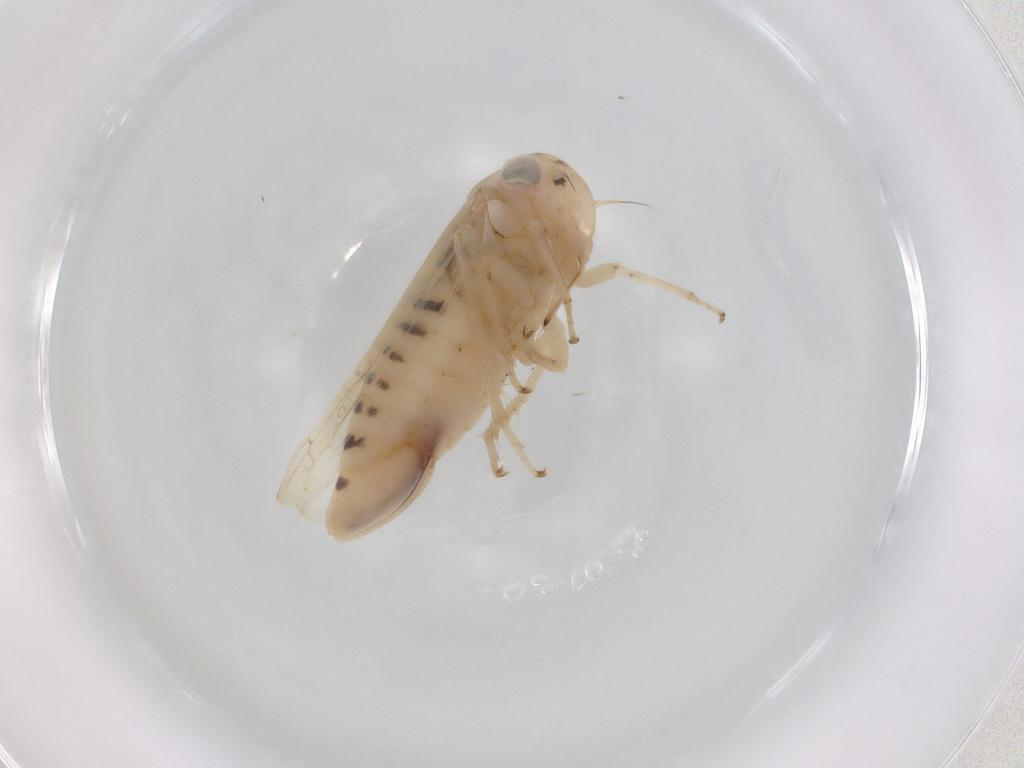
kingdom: Animalia
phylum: Arthropoda
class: Insecta
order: Hemiptera
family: Cicadellidae
